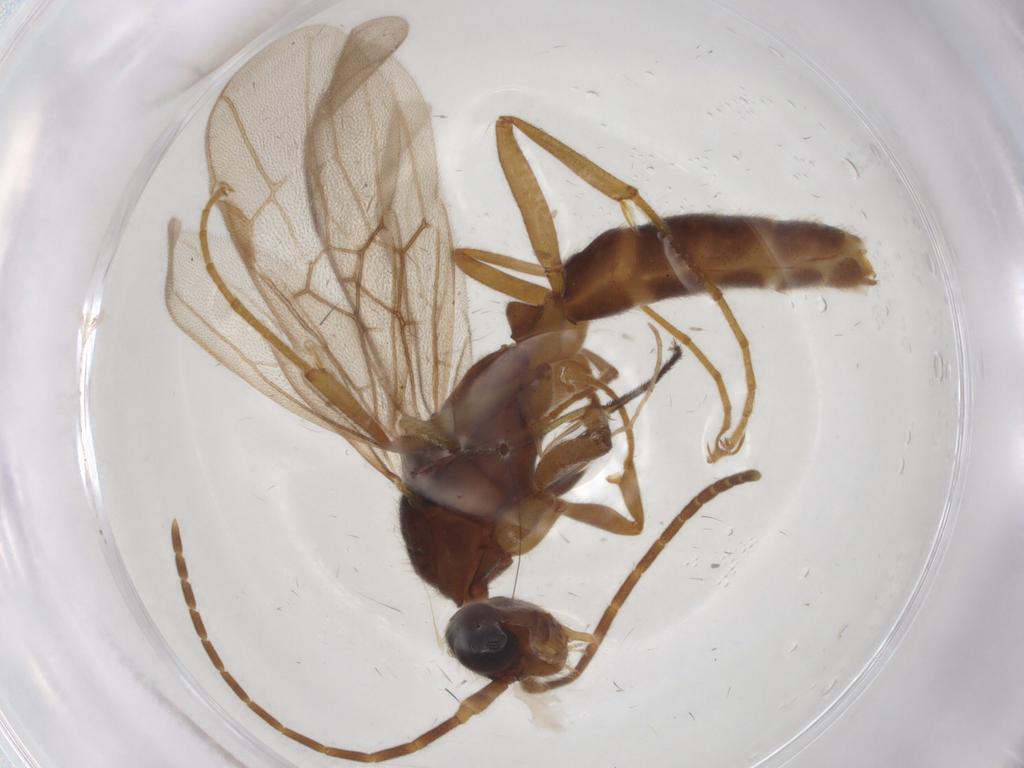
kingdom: Animalia
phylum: Arthropoda
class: Insecta
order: Hymenoptera
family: Formicidae
